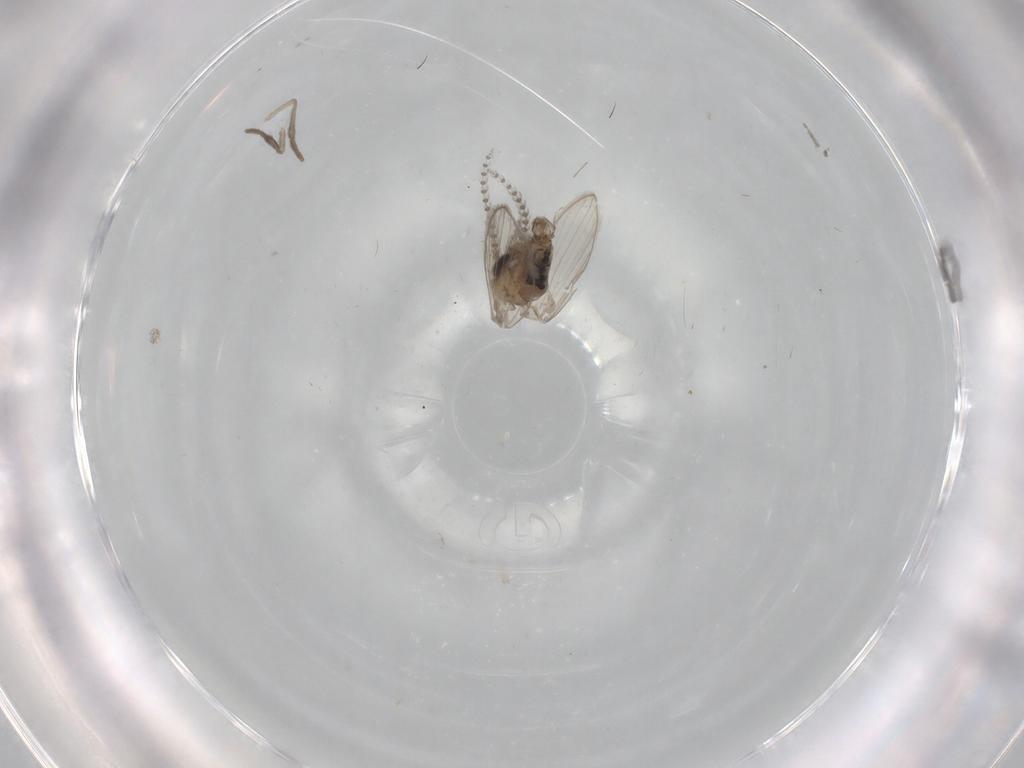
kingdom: Animalia
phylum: Arthropoda
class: Insecta
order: Diptera
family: Psychodidae
